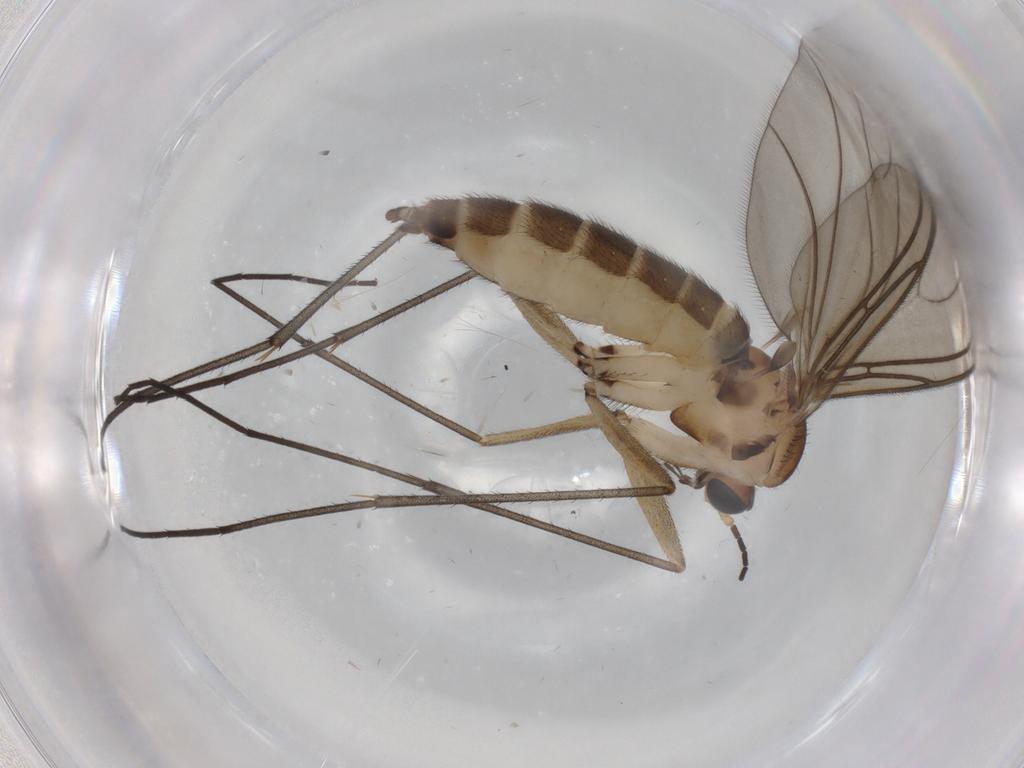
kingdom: Animalia
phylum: Arthropoda
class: Insecta
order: Diptera
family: Sciaridae
